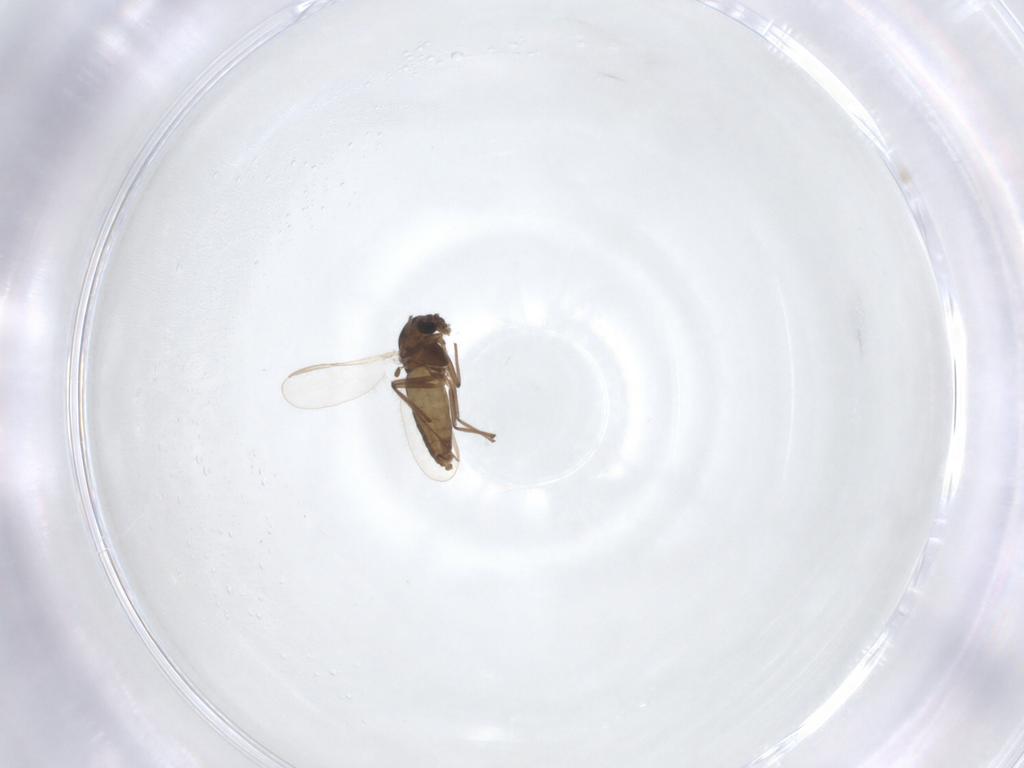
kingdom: Animalia
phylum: Arthropoda
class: Insecta
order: Diptera
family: Chironomidae
